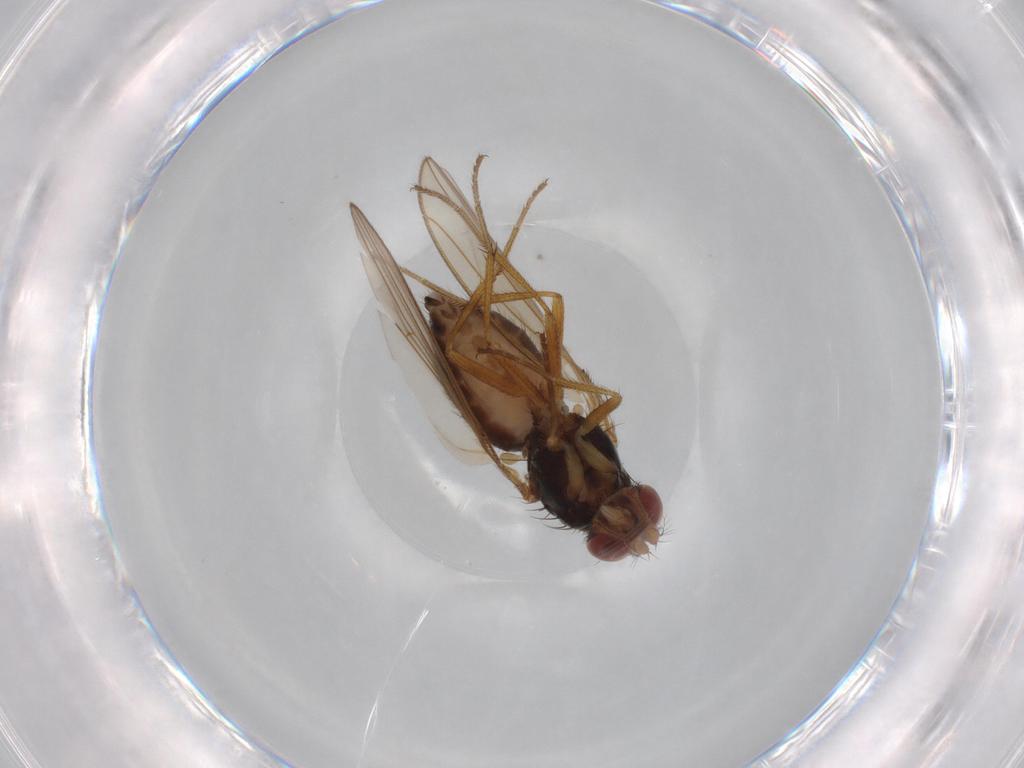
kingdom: Animalia
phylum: Arthropoda
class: Insecta
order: Diptera
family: Drosophilidae
